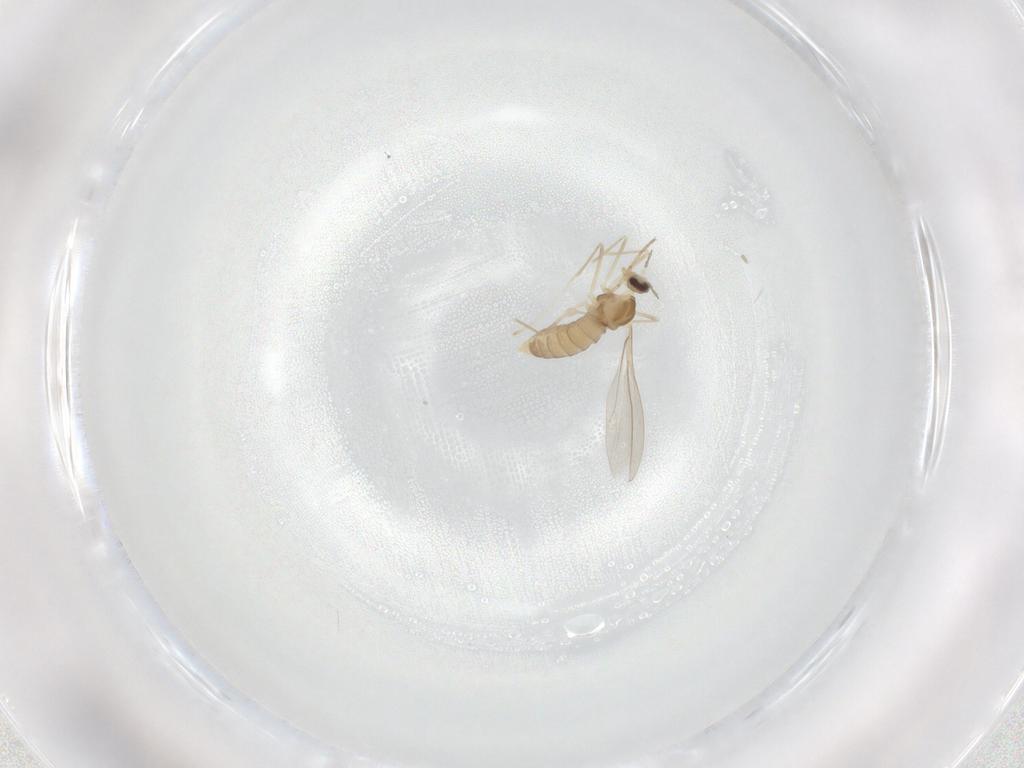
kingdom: Animalia
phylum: Arthropoda
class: Insecta
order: Diptera
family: Cecidomyiidae
